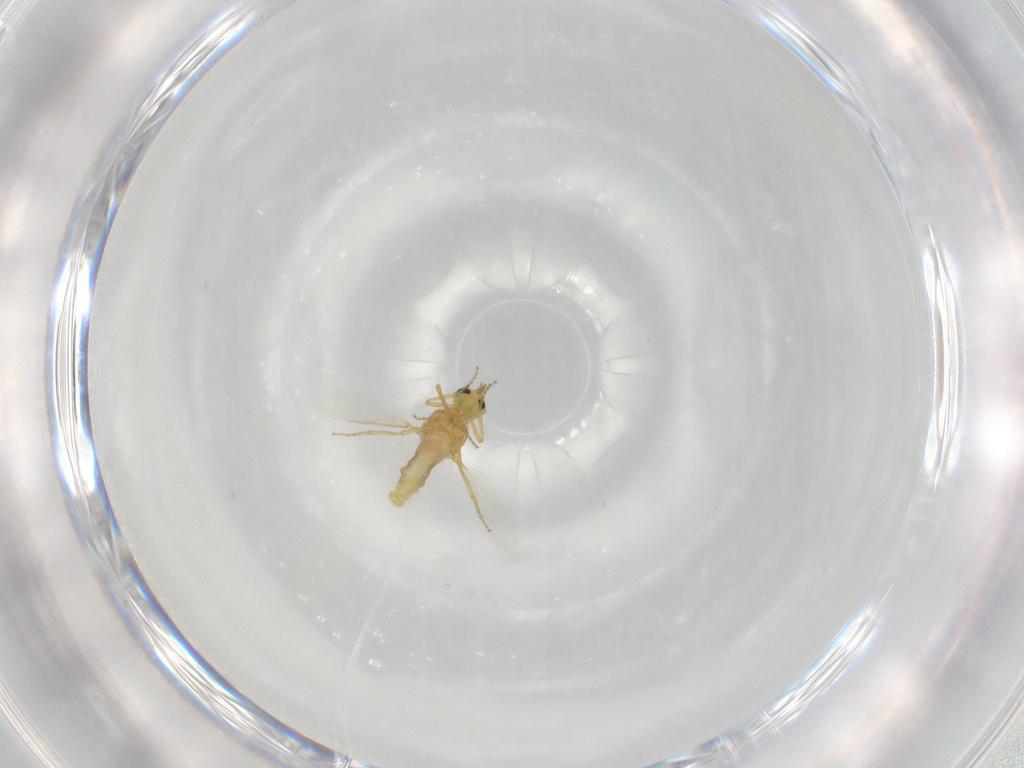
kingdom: Animalia
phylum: Arthropoda
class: Insecta
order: Diptera
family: Ceratopogonidae
